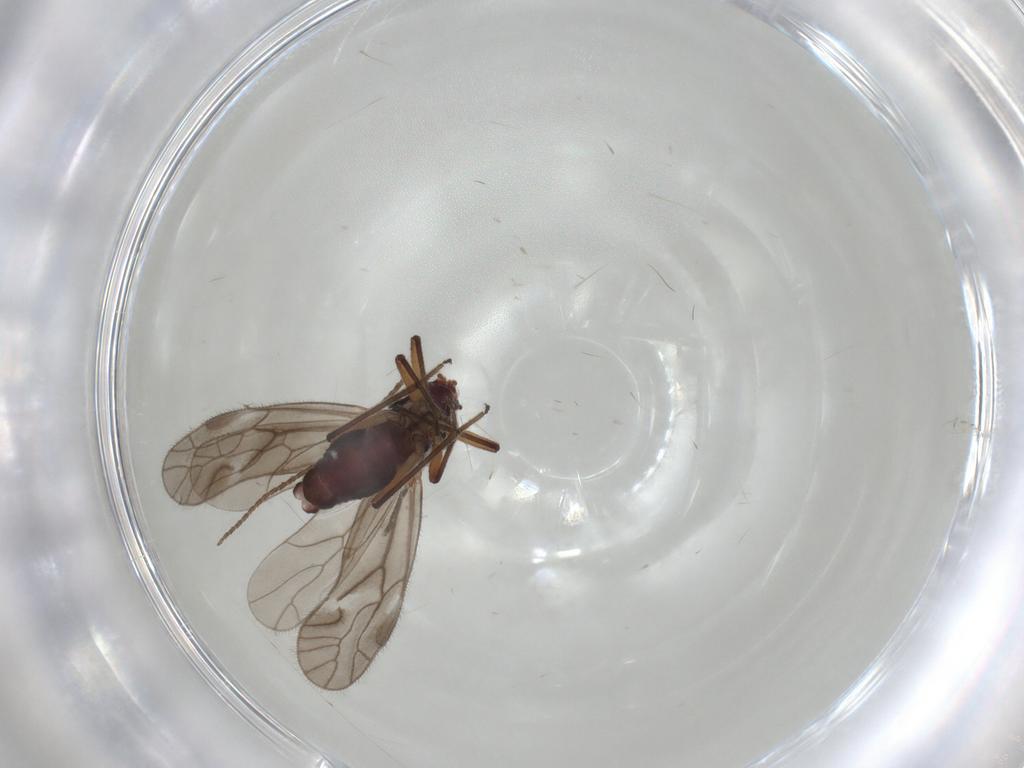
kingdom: Animalia
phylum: Arthropoda
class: Insecta
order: Psocodea
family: Trichopsocidae
